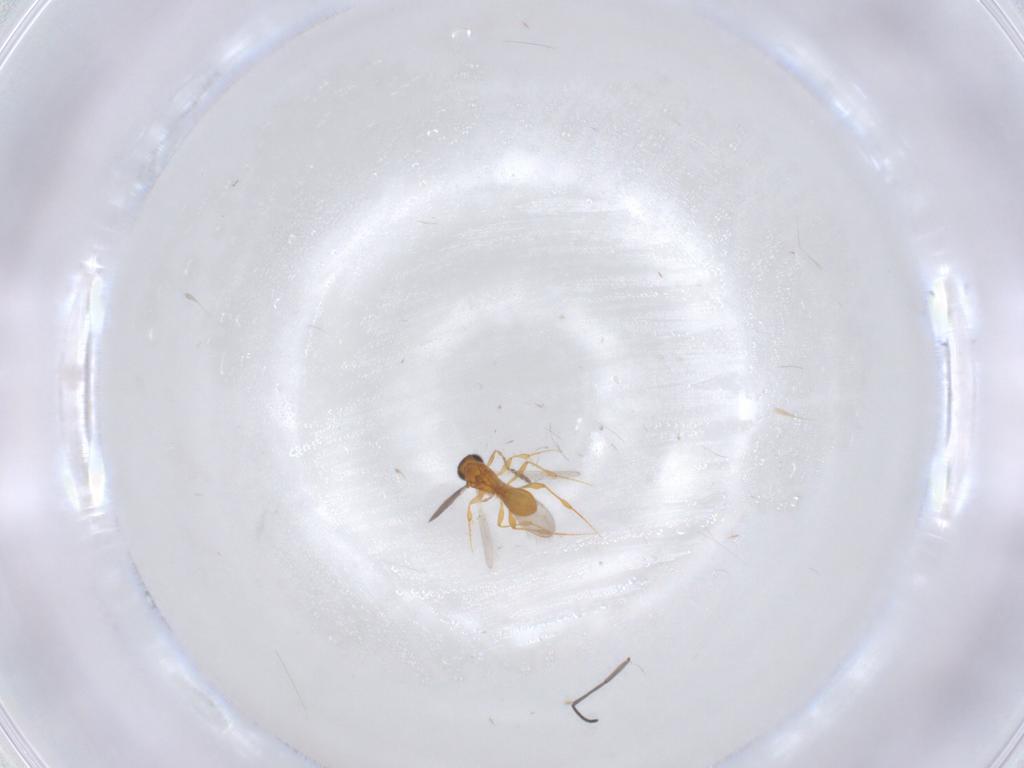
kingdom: Animalia
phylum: Arthropoda
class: Insecta
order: Hymenoptera
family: Platygastridae
